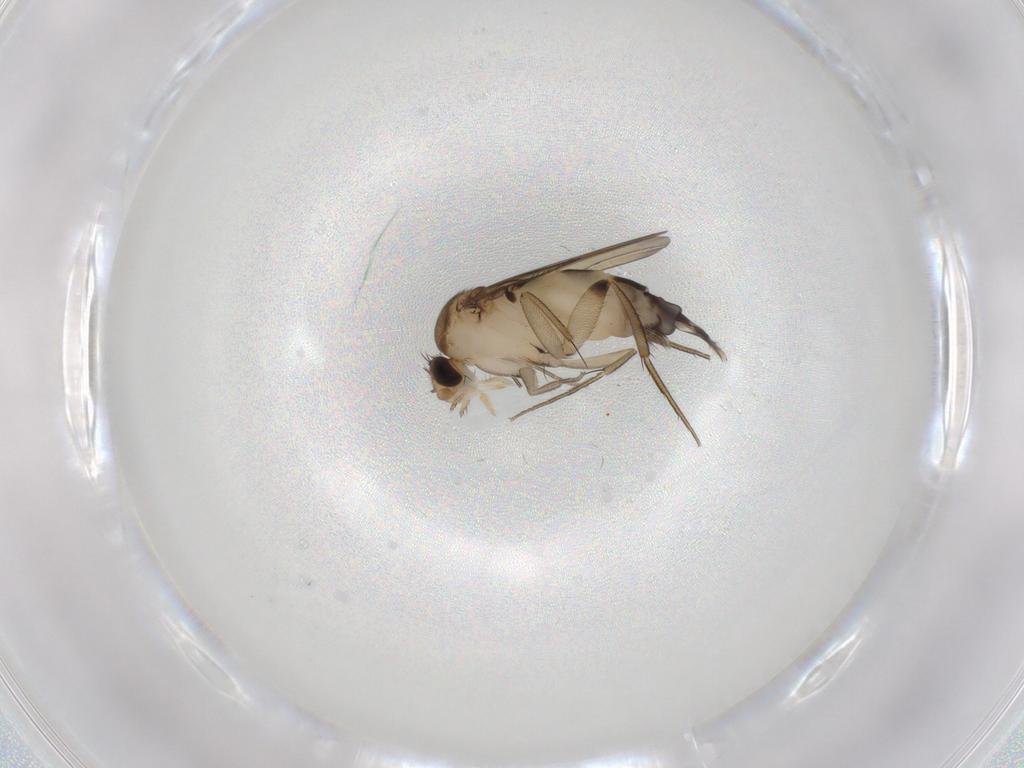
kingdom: Animalia
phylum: Arthropoda
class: Insecta
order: Diptera
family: Phoridae
